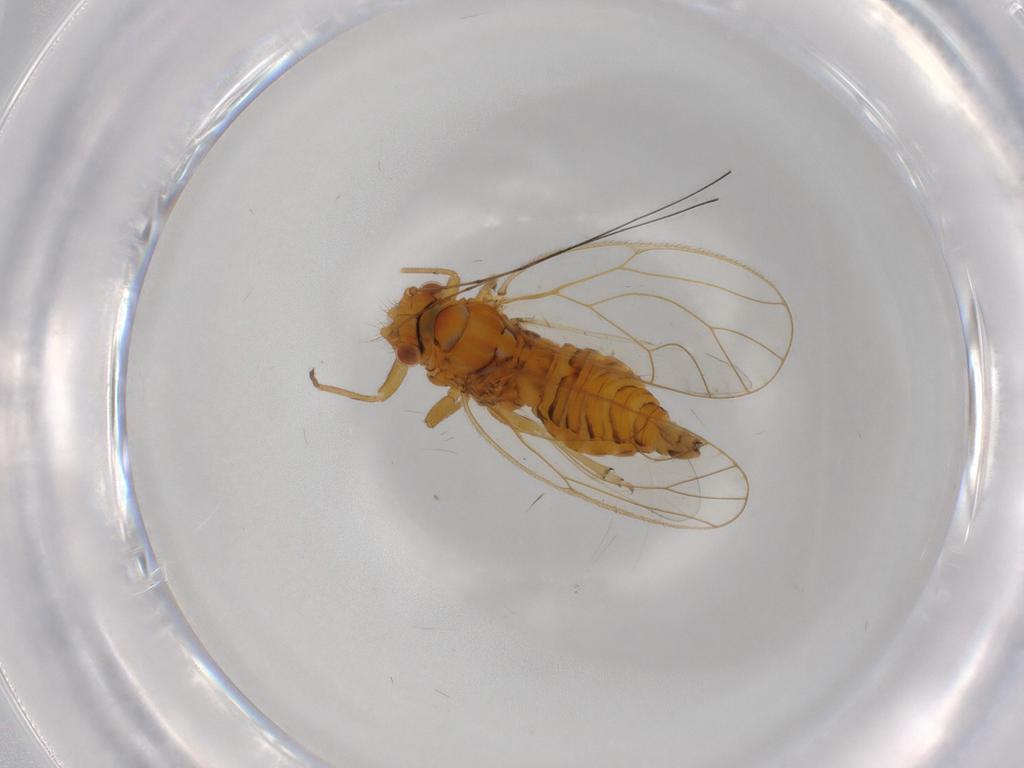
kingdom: Animalia
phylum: Arthropoda
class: Insecta
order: Hemiptera
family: Psyllidae
